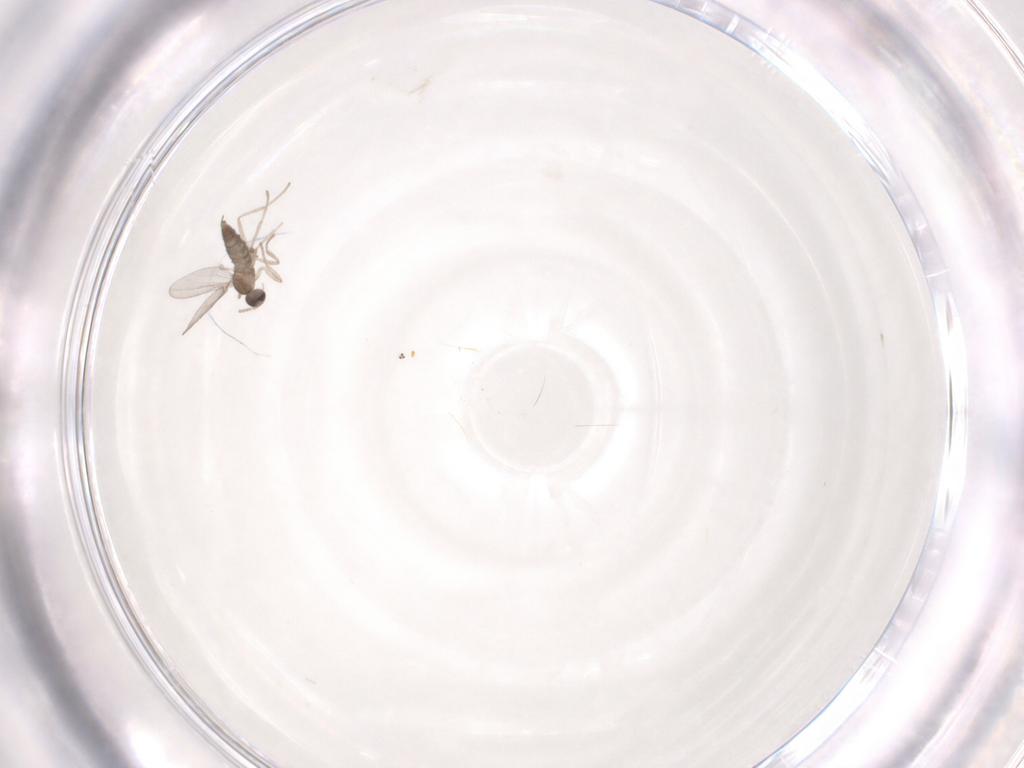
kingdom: Animalia
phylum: Arthropoda
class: Insecta
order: Diptera
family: Cecidomyiidae
